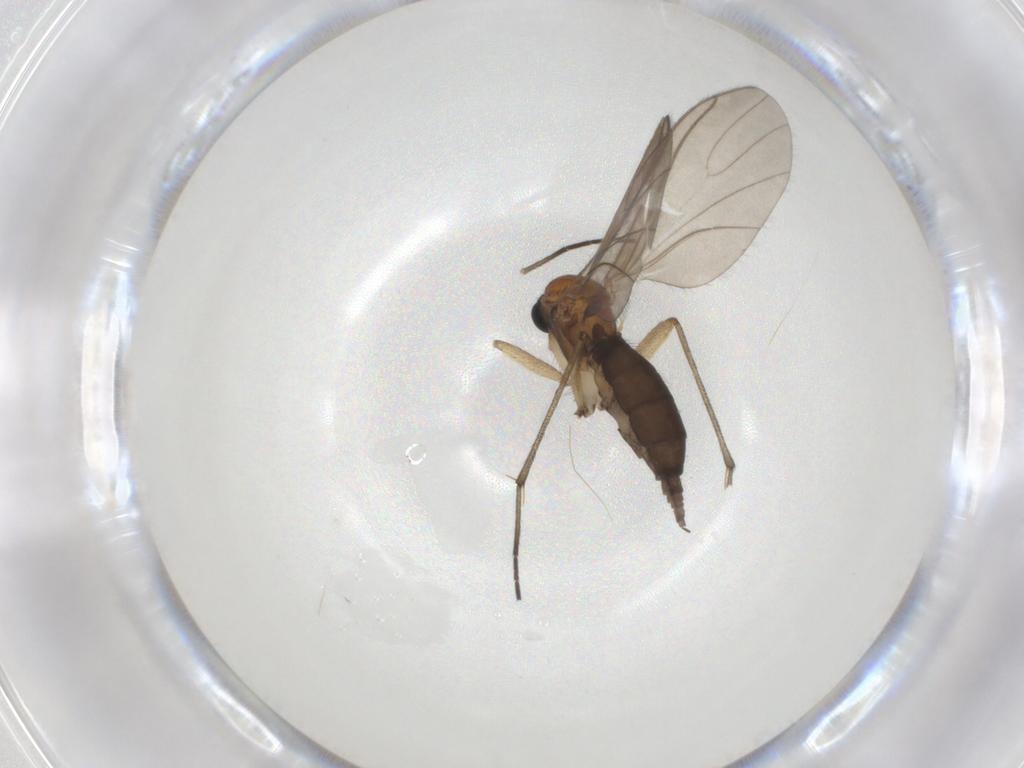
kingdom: Animalia
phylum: Arthropoda
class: Insecta
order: Diptera
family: Sciaridae
